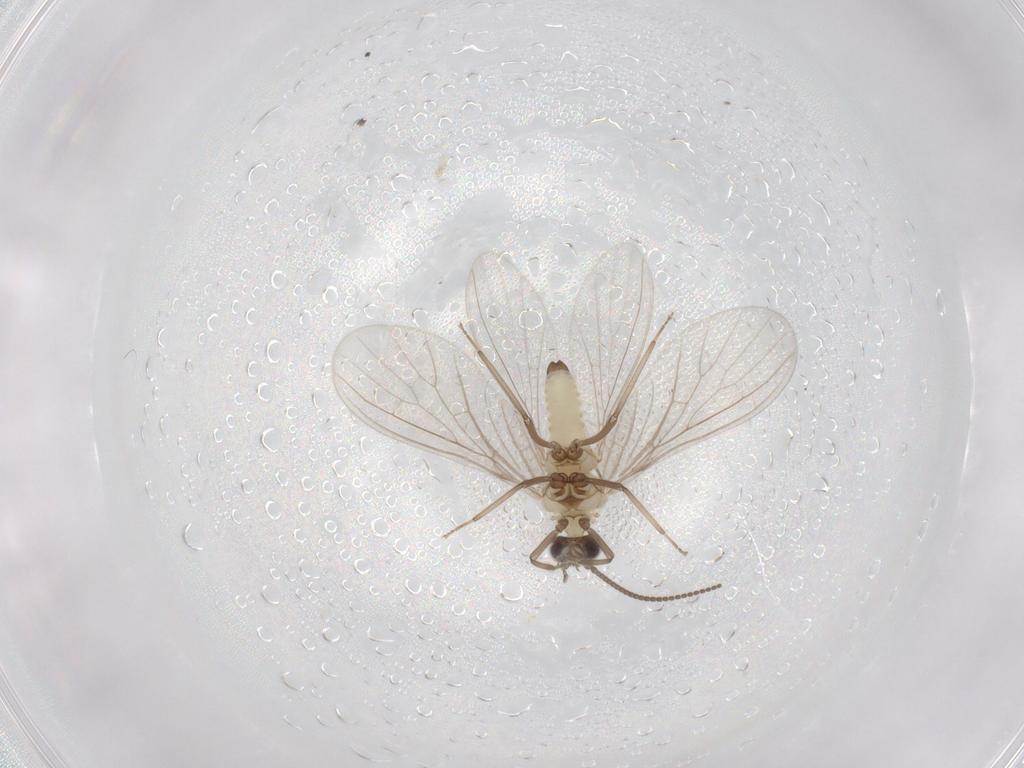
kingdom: Animalia
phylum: Arthropoda
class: Insecta
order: Neuroptera
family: Coniopterygidae
